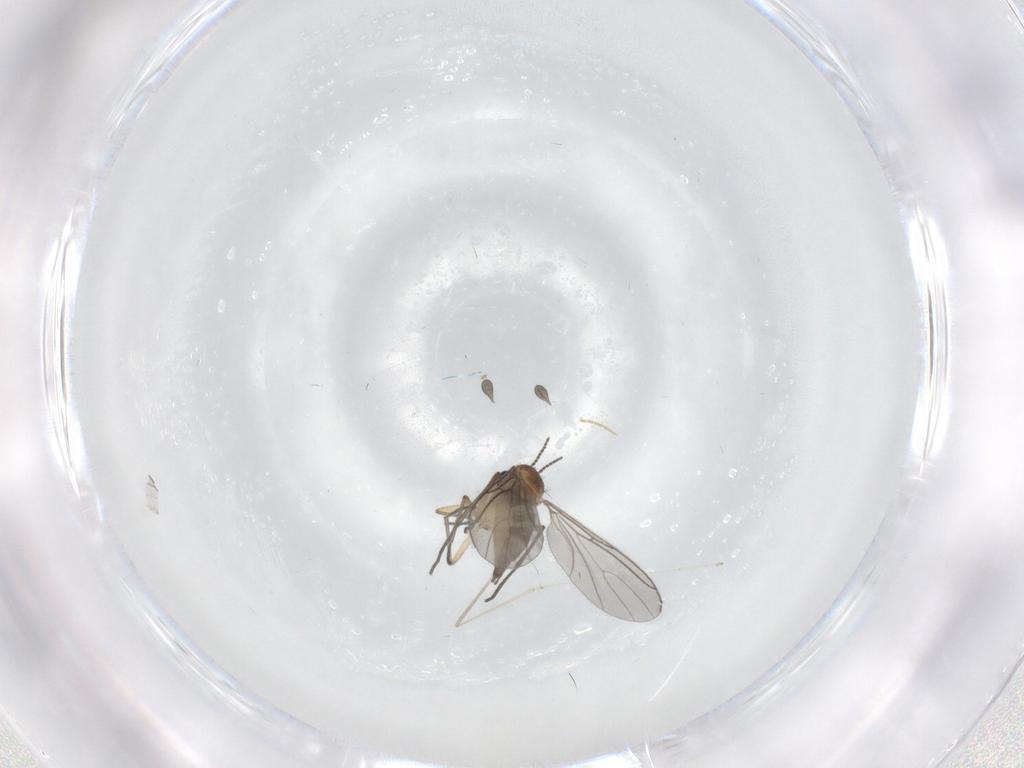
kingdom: Animalia
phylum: Arthropoda
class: Insecta
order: Diptera
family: Sciaridae
